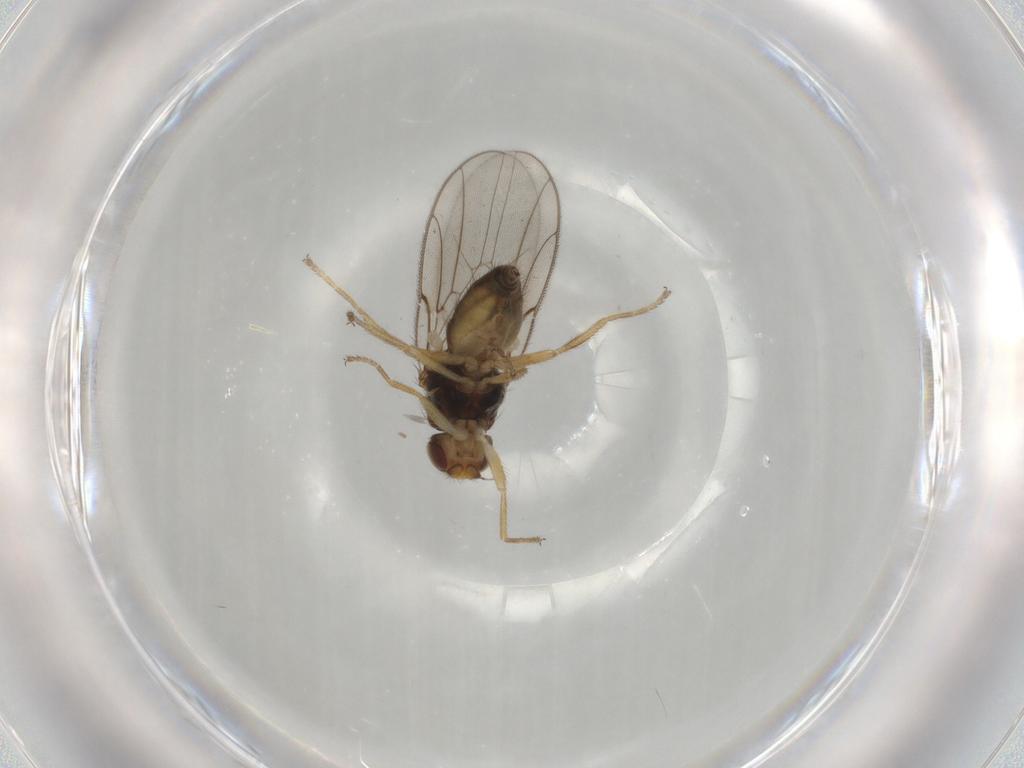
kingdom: Animalia
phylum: Arthropoda
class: Insecta
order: Diptera
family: Chloropidae
